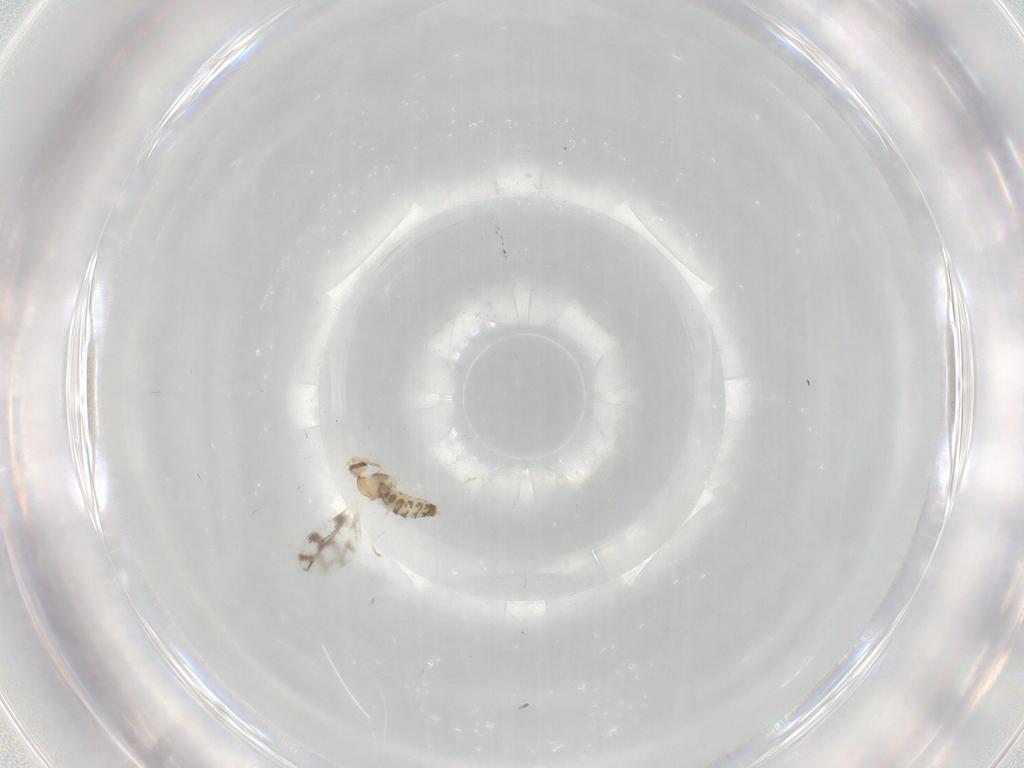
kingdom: Animalia
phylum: Arthropoda
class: Insecta
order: Diptera
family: Cecidomyiidae
